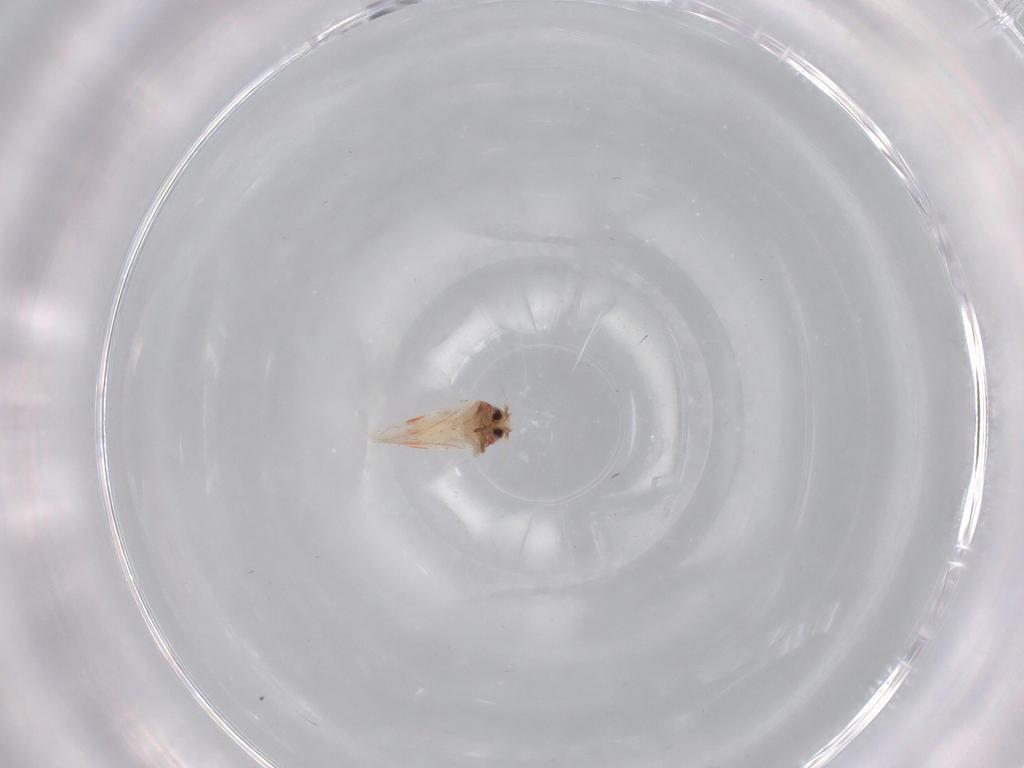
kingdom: Animalia
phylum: Arthropoda
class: Insecta
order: Hemiptera
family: Aleyrodidae
